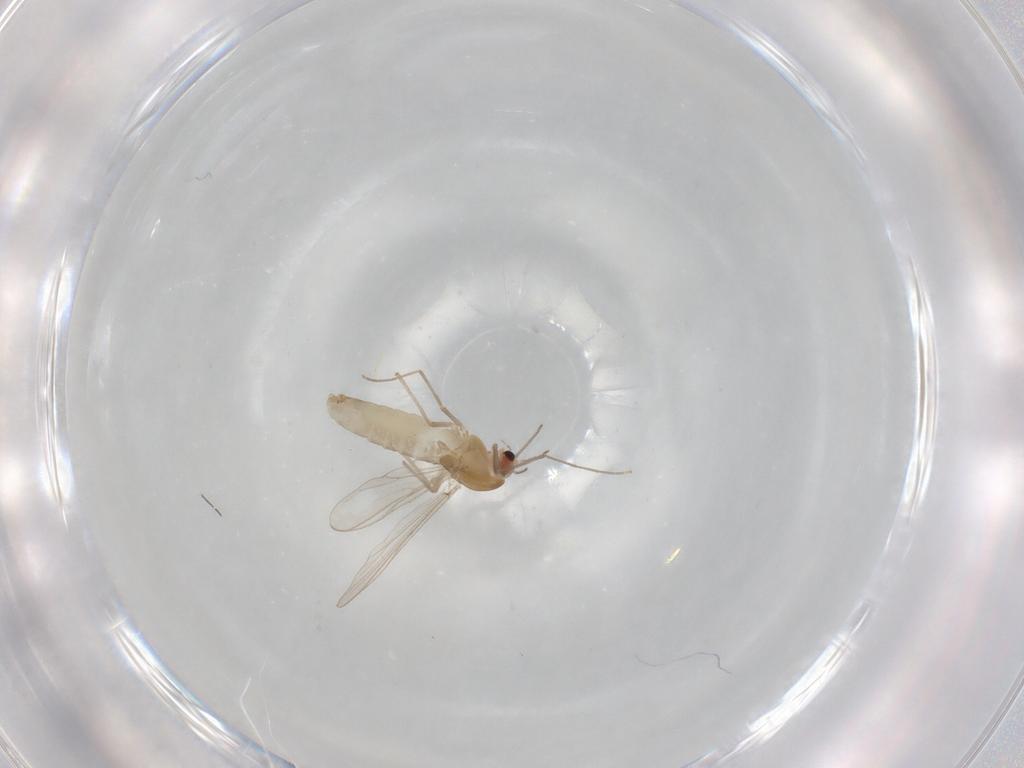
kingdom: Animalia
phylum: Arthropoda
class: Insecta
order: Diptera
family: Chironomidae
